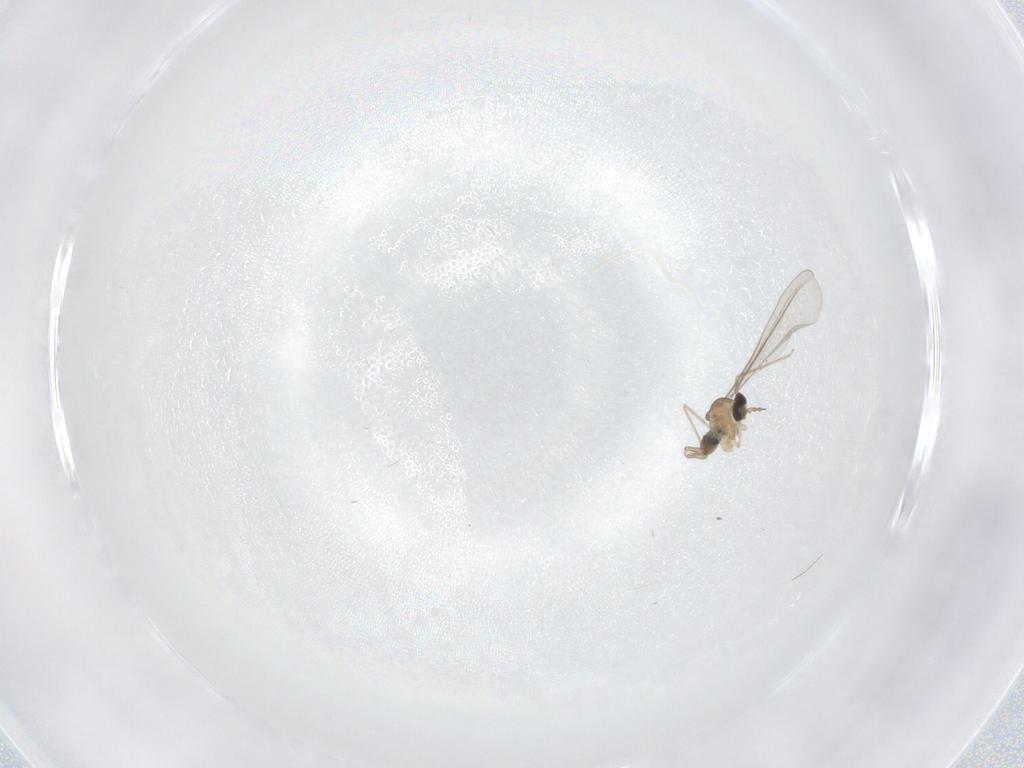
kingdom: Animalia
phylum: Arthropoda
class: Insecta
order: Diptera
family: Cecidomyiidae
